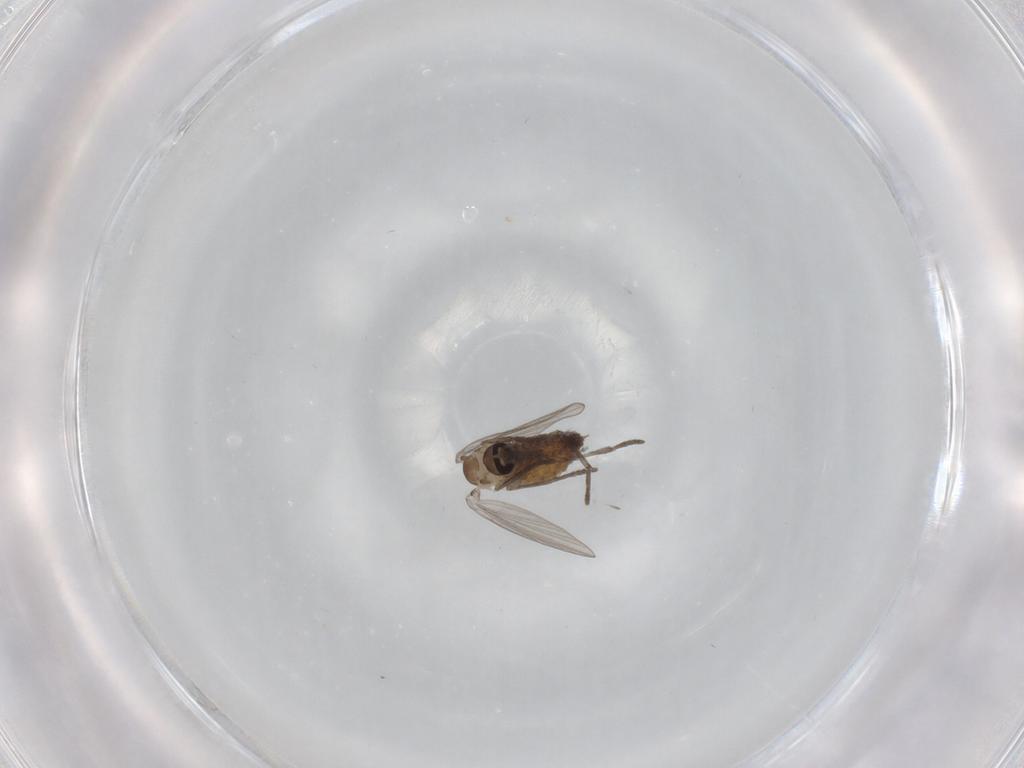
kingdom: Animalia
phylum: Arthropoda
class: Insecta
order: Diptera
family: Psychodidae
